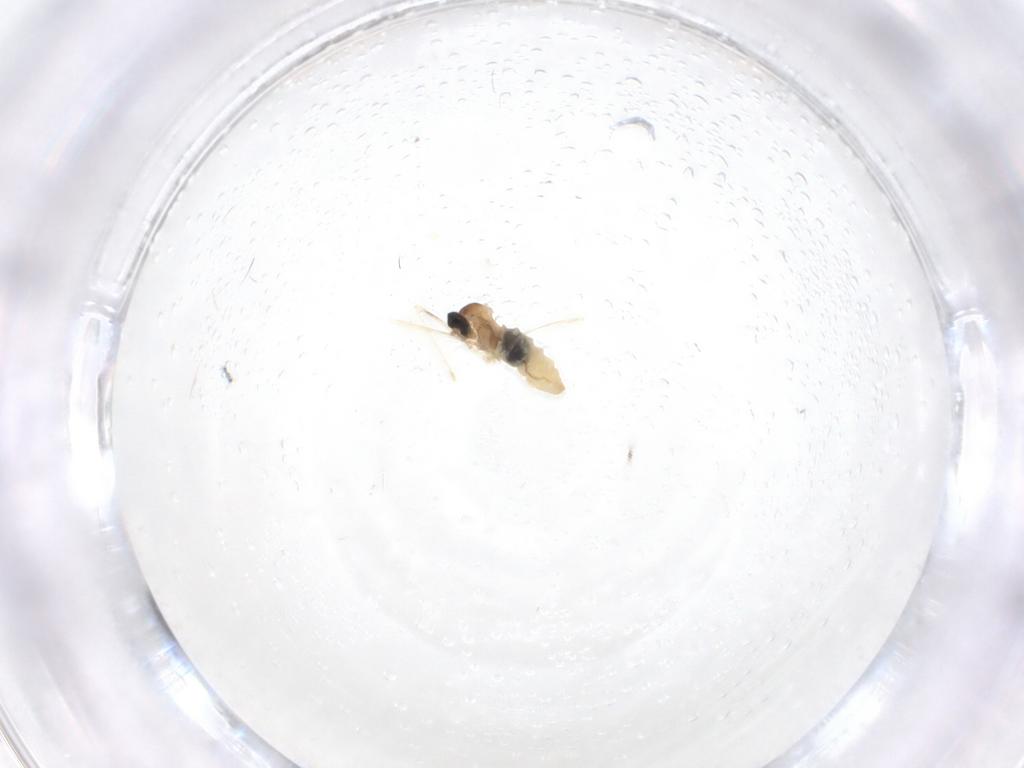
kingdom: Animalia
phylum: Arthropoda
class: Insecta
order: Diptera
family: Cecidomyiidae
